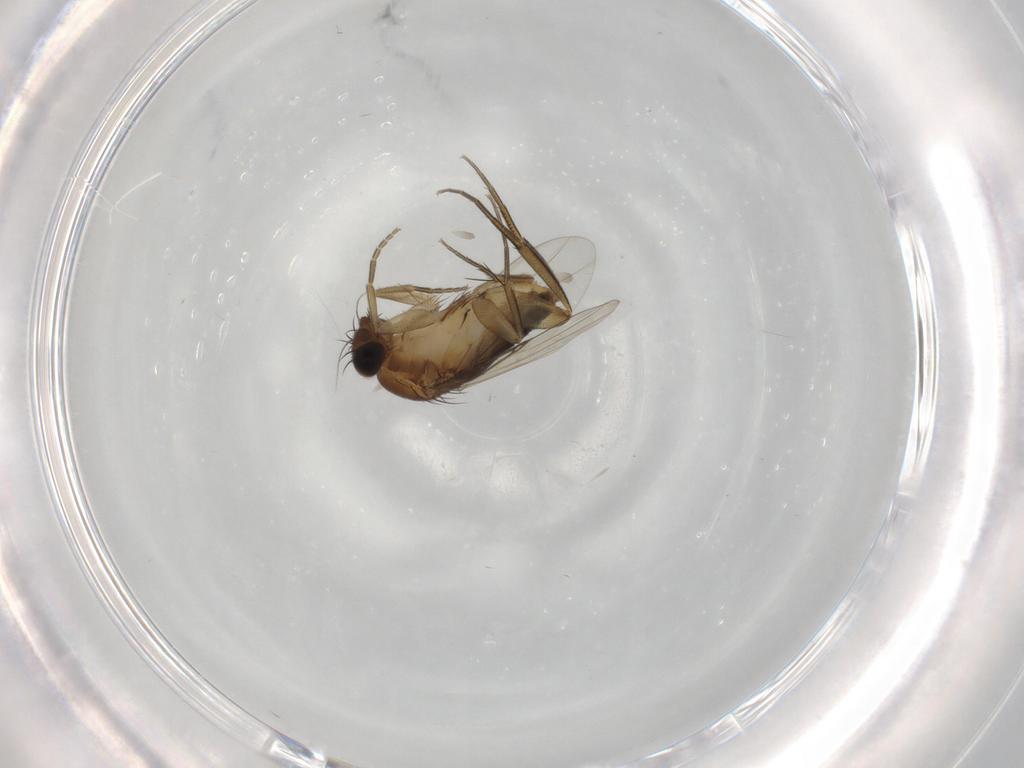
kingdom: Animalia
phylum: Arthropoda
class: Insecta
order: Diptera
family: Phoridae
